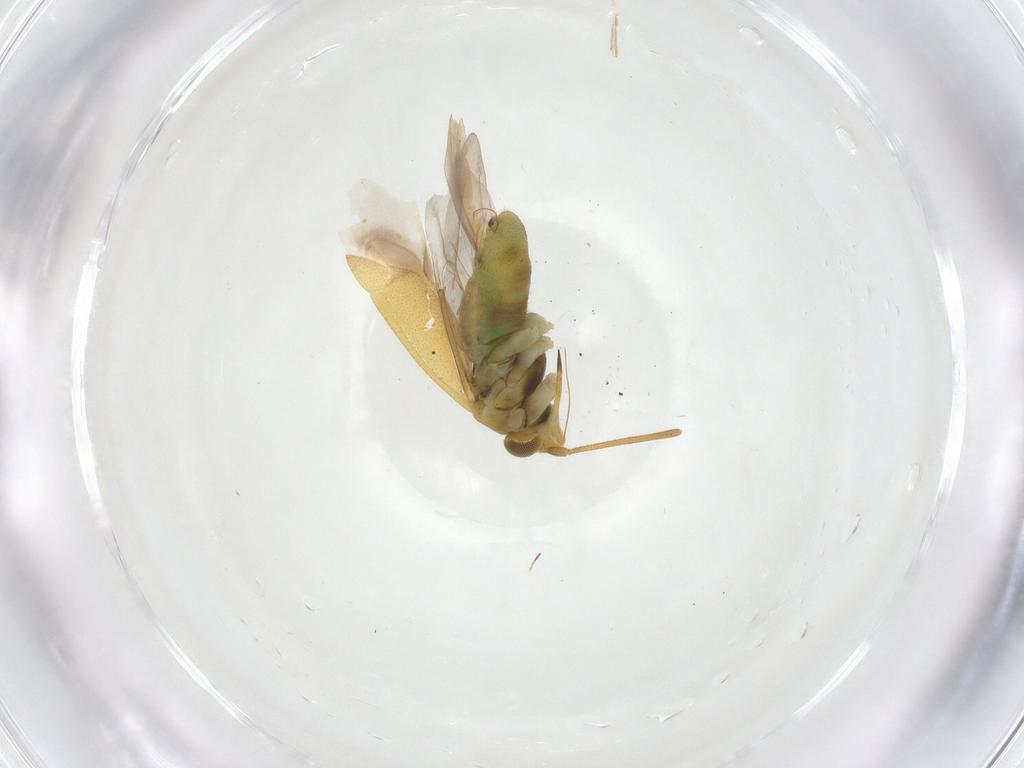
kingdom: Animalia
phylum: Arthropoda
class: Insecta
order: Hemiptera
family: Miridae
